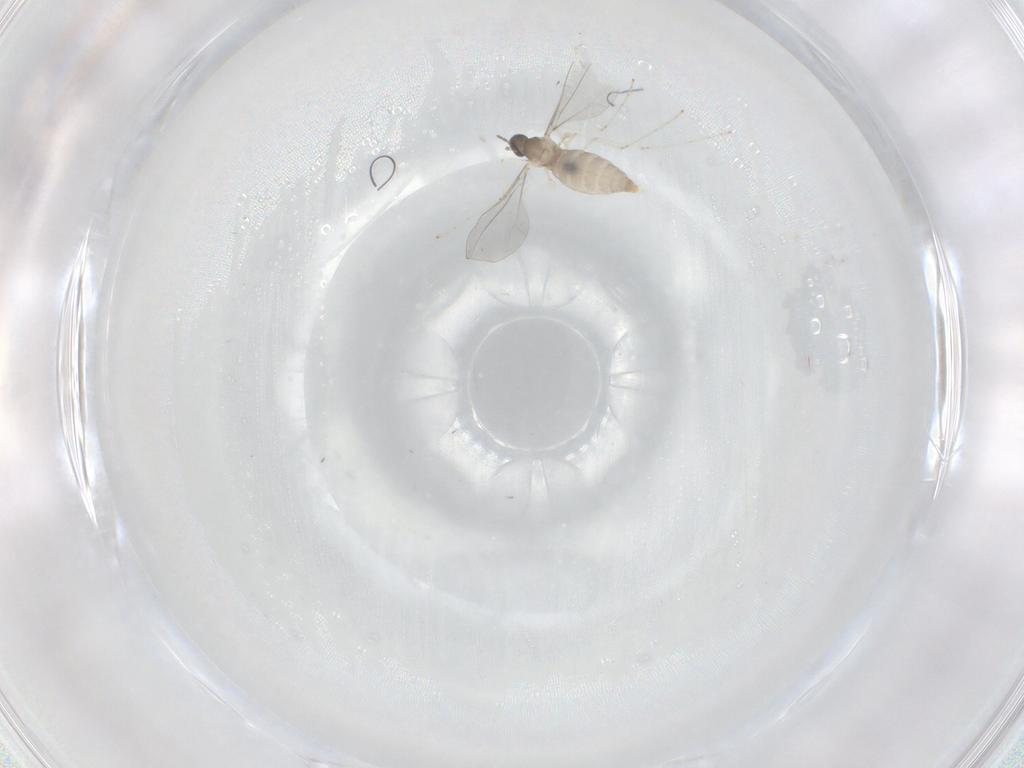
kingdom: Animalia
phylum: Arthropoda
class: Insecta
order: Diptera
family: Cecidomyiidae
